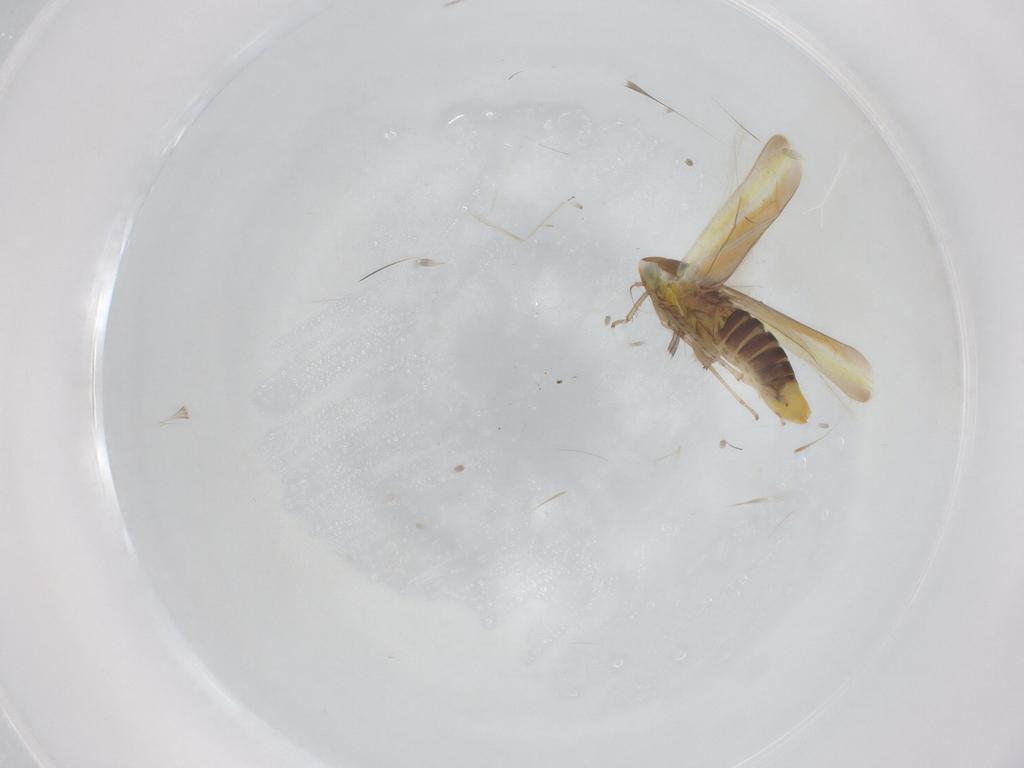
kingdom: Animalia
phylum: Arthropoda
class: Insecta
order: Hemiptera
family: Cicadellidae
